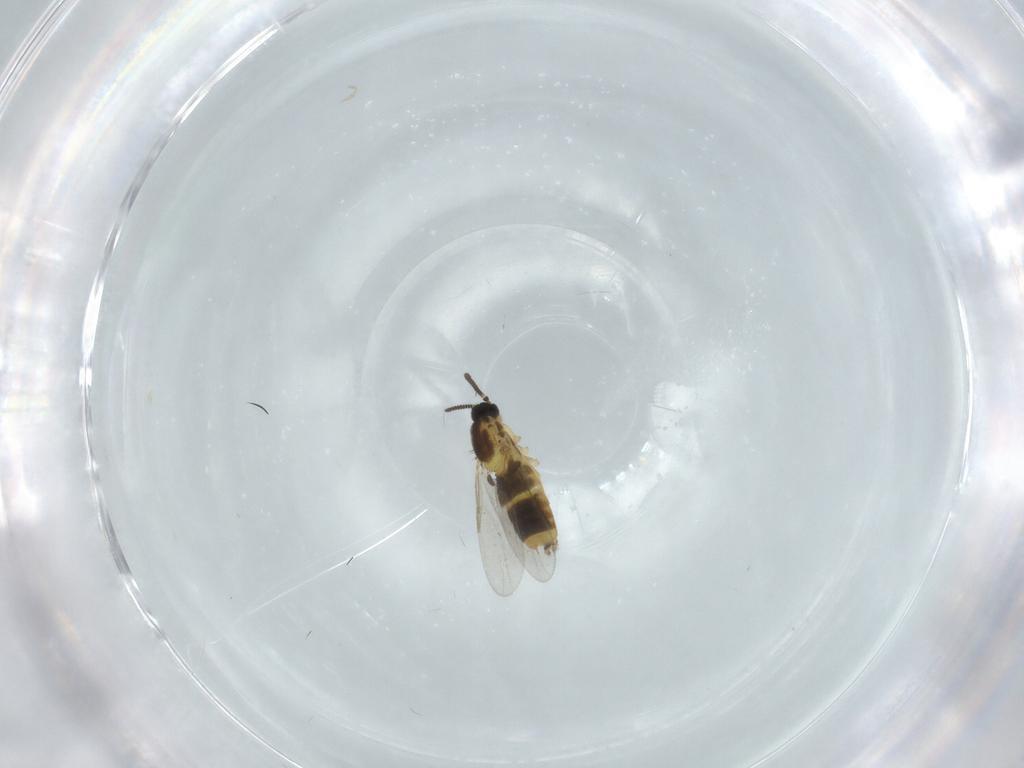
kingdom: Animalia
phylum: Arthropoda
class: Insecta
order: Diptera
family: Scatopsidae
